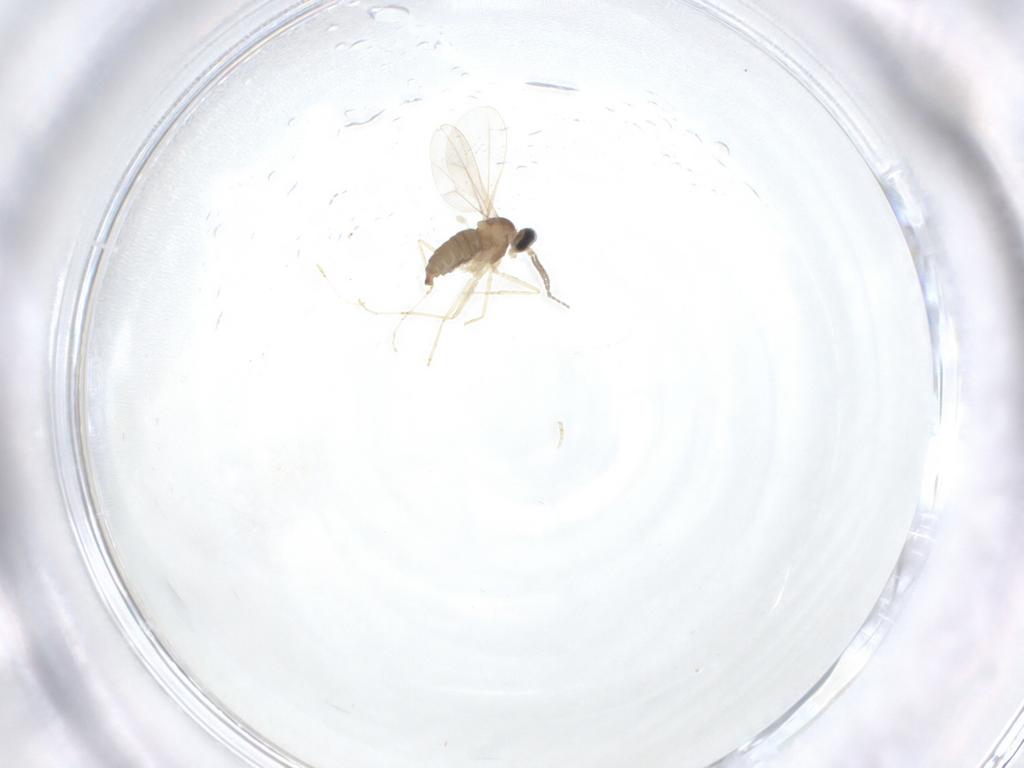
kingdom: Animalia
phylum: Arthropoda
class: Insecta
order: Diptera
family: Cecidomyiidae
